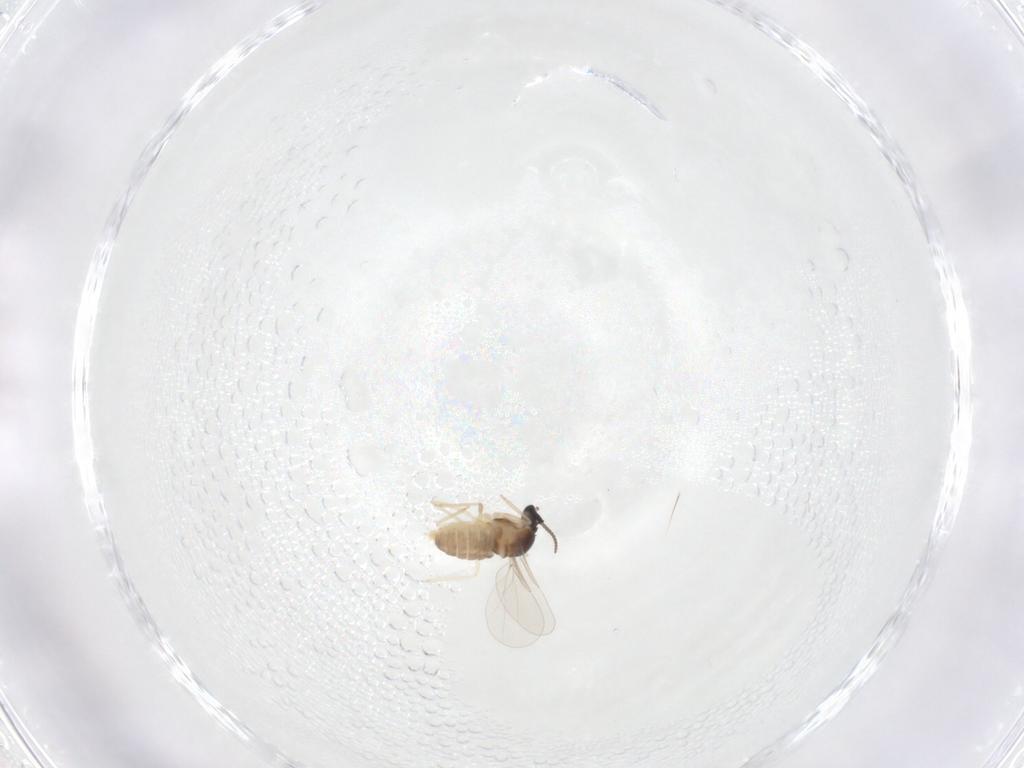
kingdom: Animalia
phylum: Arthropoda
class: Insecta
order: Diptera
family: Cecidomyiidae
